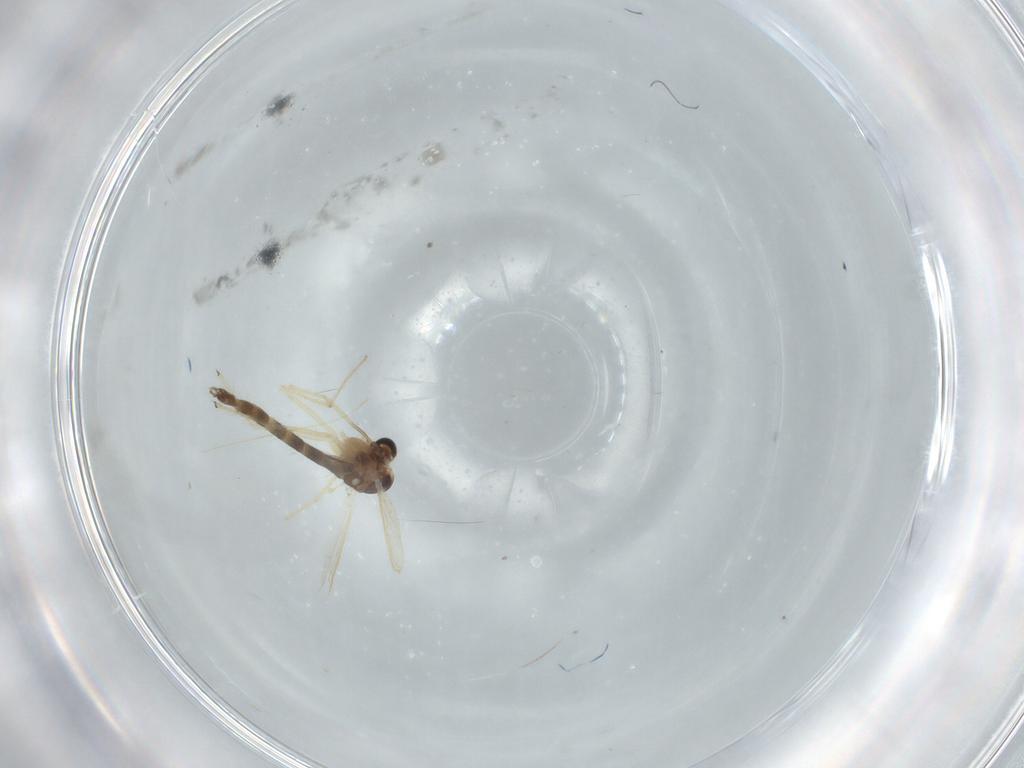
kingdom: Animalia
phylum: Arthropoda
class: Insecta
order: Diptera
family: Chironomidae
